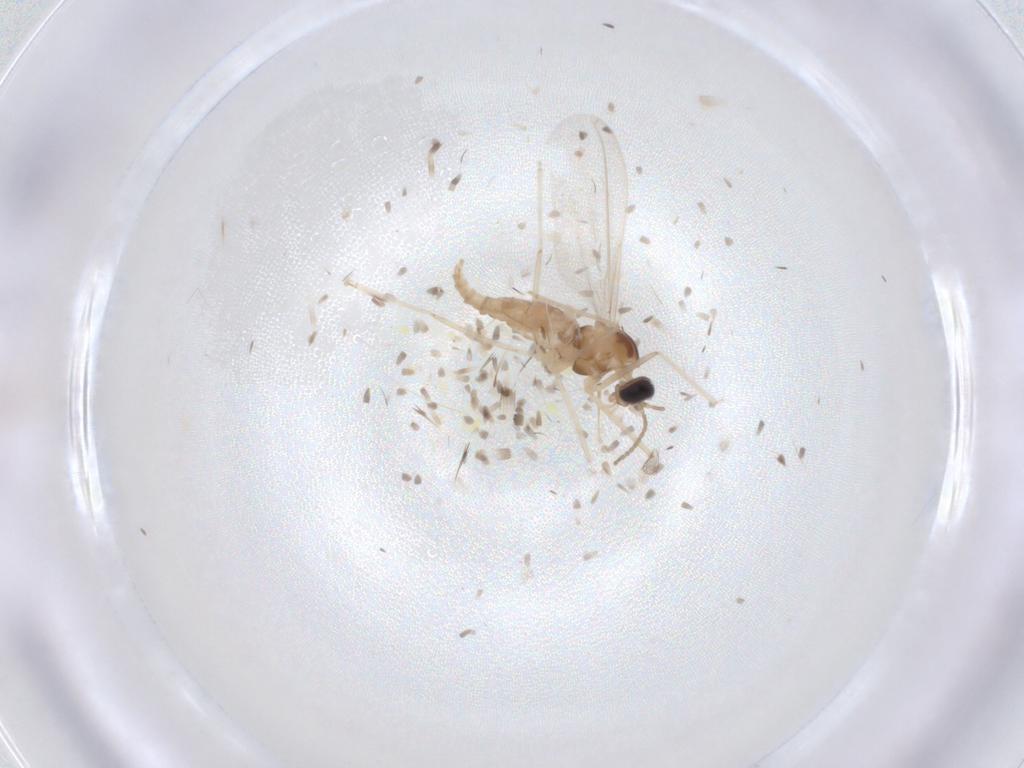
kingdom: Animalia
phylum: Arthropoda
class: Insecta
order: Diptera
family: Cecidomyiidae
